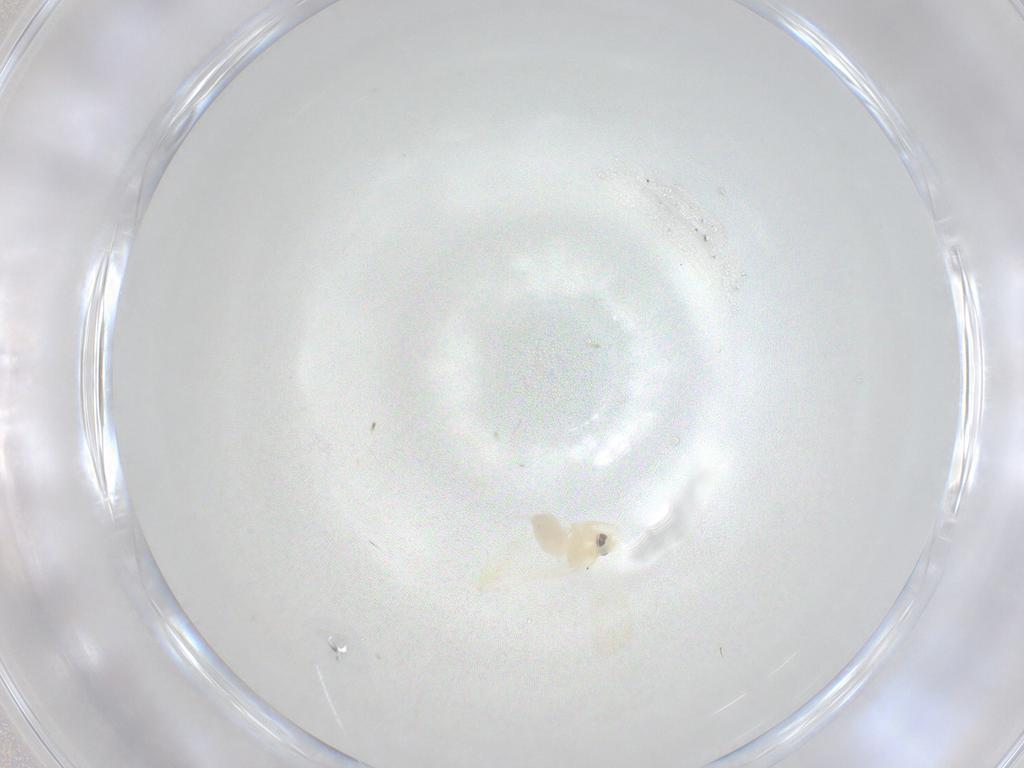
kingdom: Animalia
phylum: Arthropoda
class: Insecta
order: Hemiptera
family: Aleyrodidae
